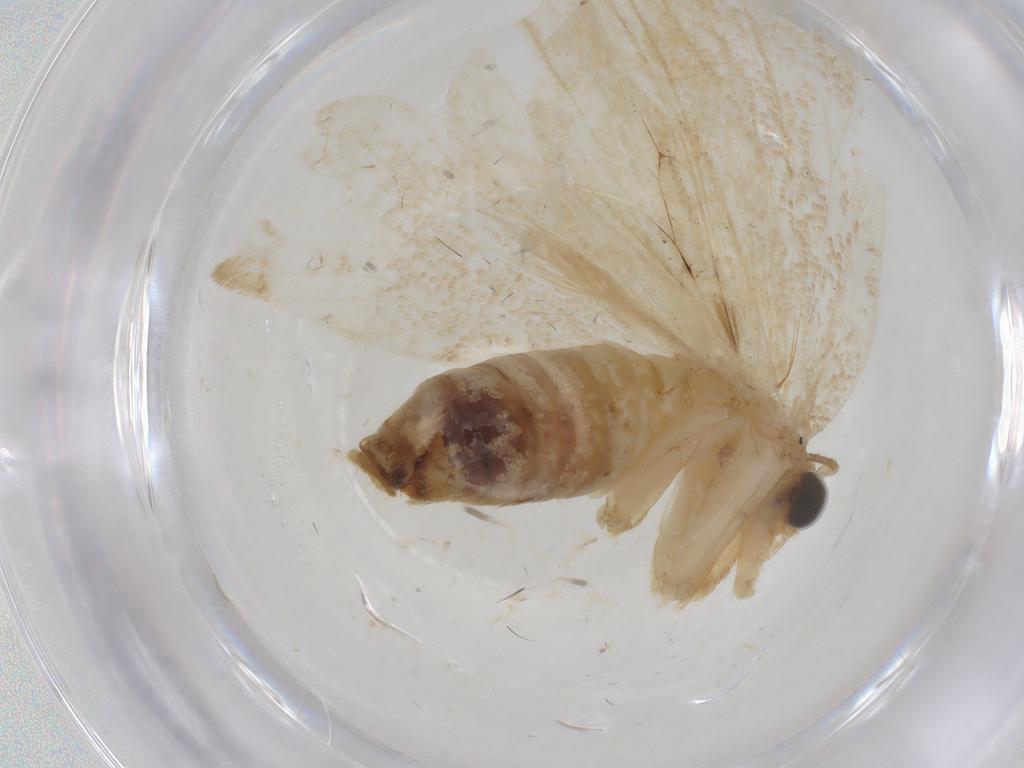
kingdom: Animalia
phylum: Arthropoda
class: Insecta
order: Lepidoptera
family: Tortricidae
